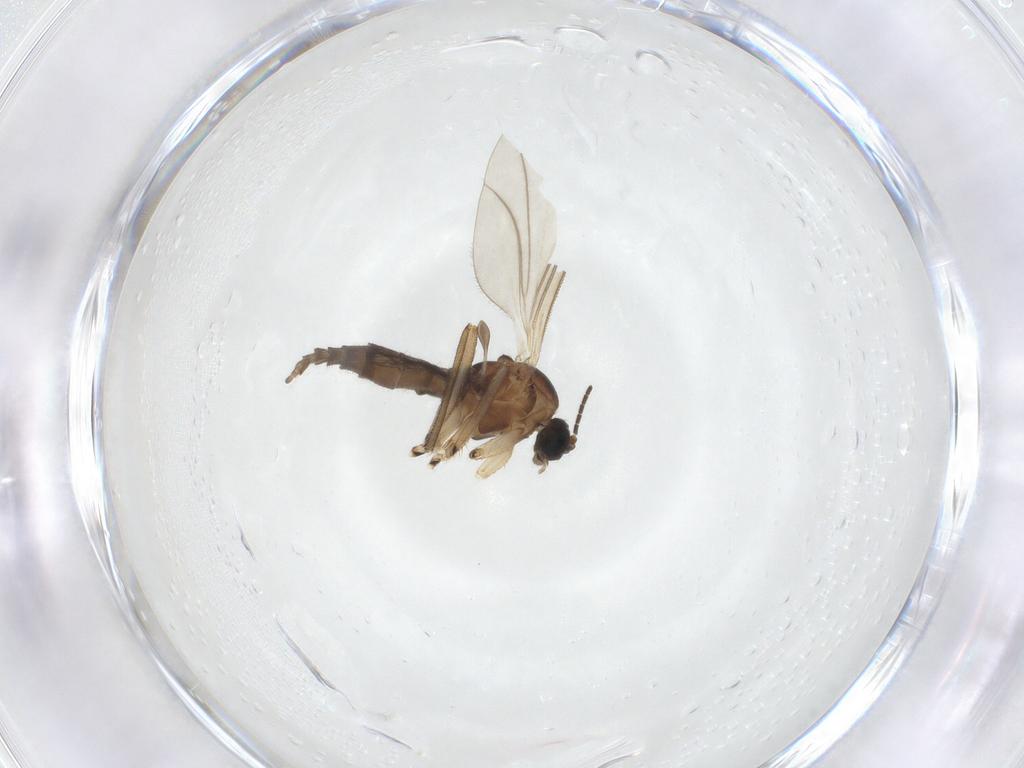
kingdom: Animalia
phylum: Arthropoda
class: Insecta
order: Diptera
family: Sciaridae
